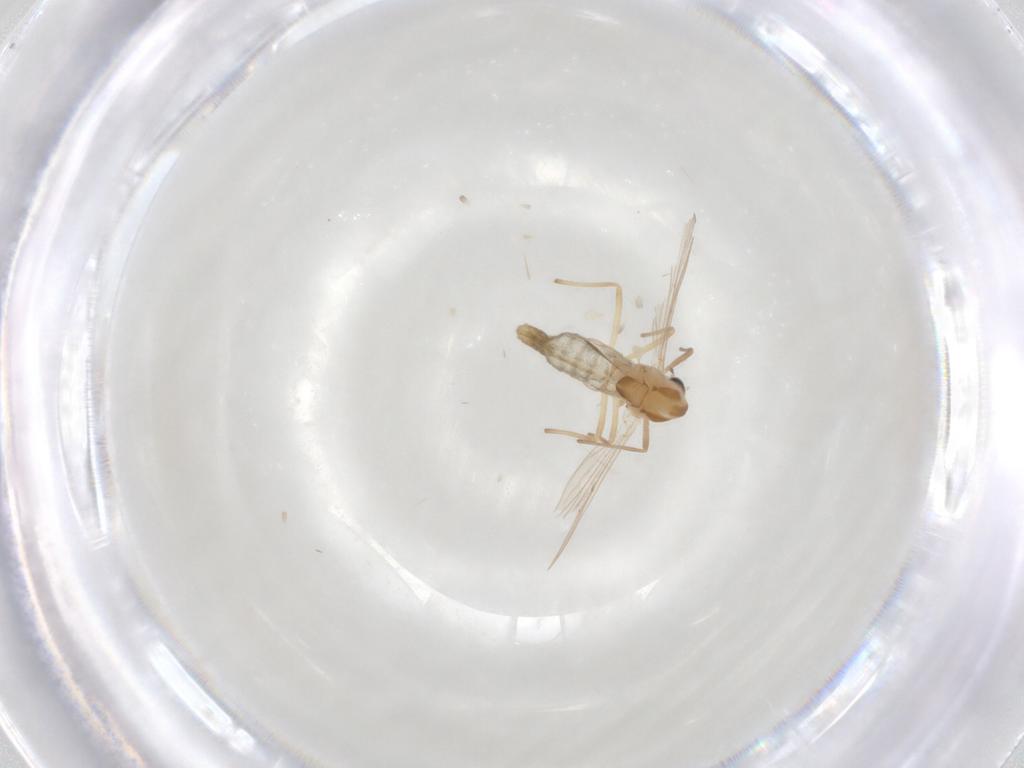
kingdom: Animalia
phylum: Arthropoda
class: Insecta
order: Diptera
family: Chironomidae
